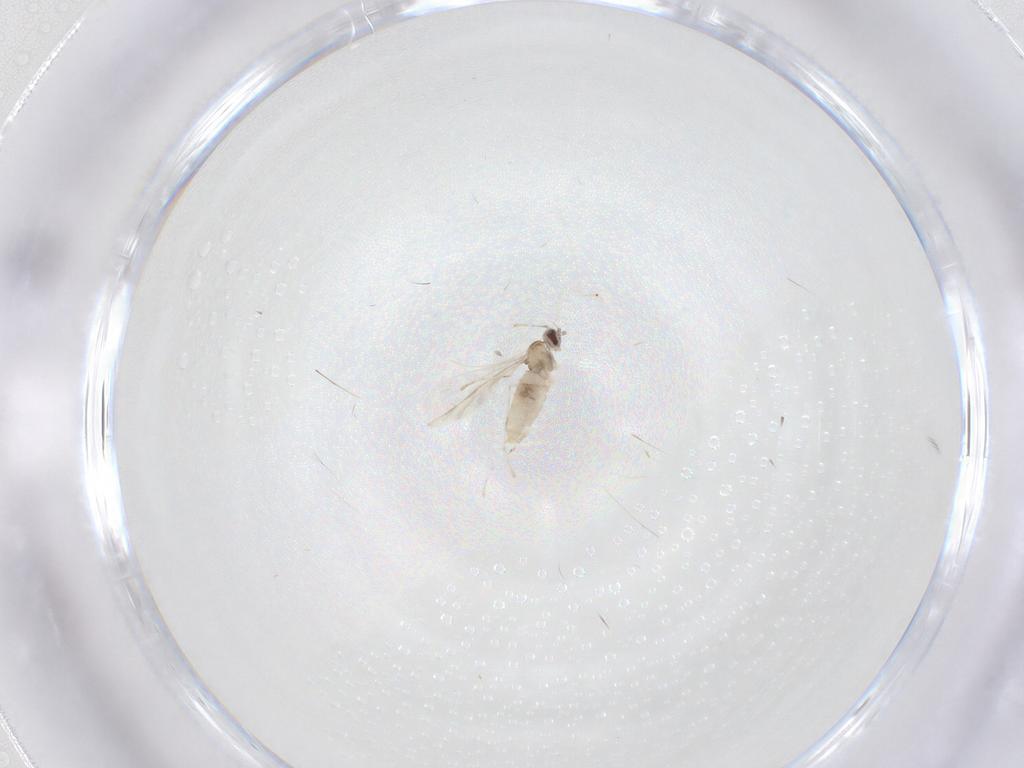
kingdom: Animalia
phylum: Arthropoda
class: Insecta
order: Diptera
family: Cecidomyiidae
